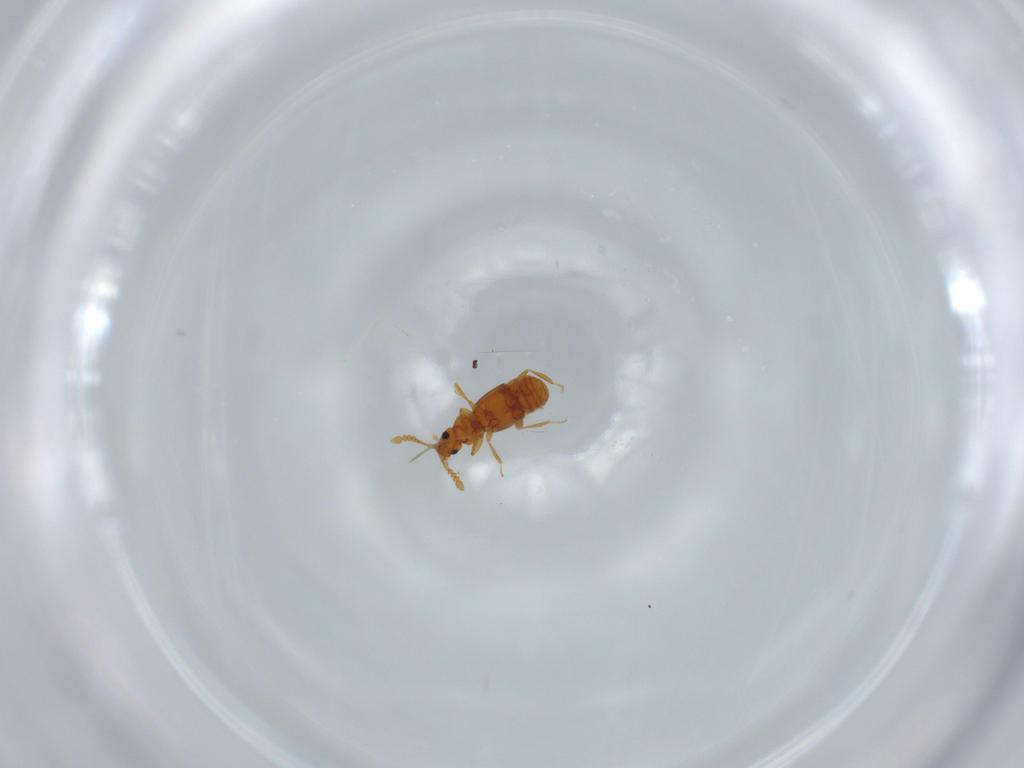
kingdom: Animalia
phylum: Arthropoda
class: Insecta
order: Coleoptera
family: Staphylinidae
